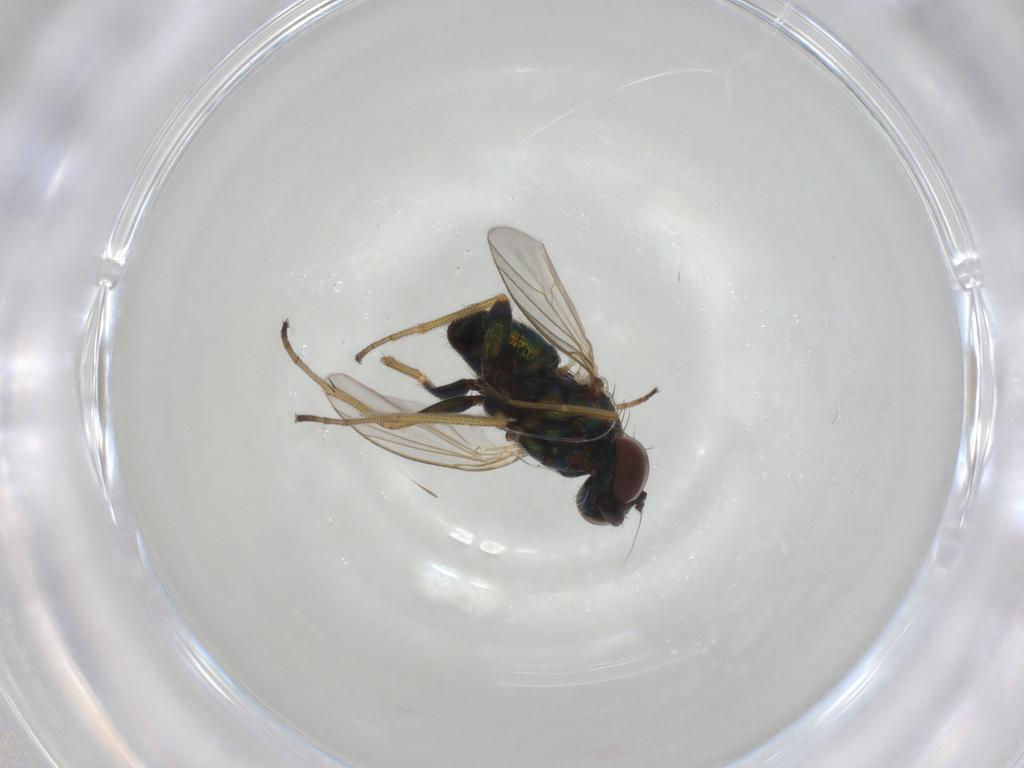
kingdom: Animalia
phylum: Arthropoda
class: Insecta
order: Diptera
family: Dolichopodidae
